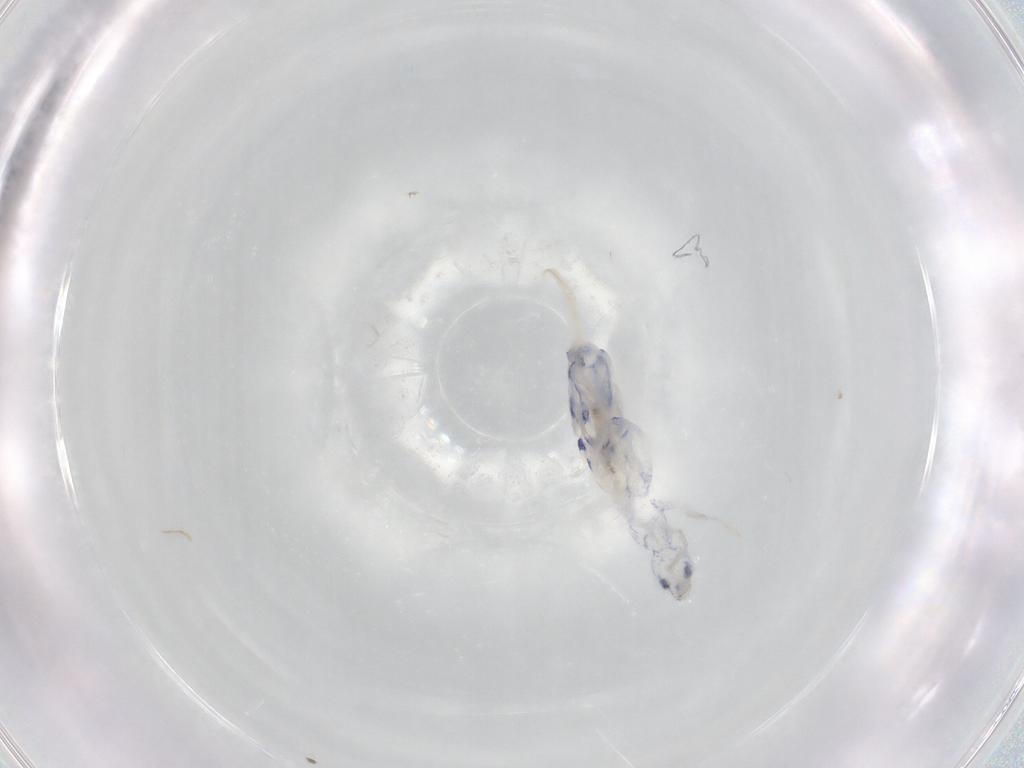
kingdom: Animalia
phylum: Arthropoda
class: Collembola
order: Entomobryomorpha
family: Entomobryidae
